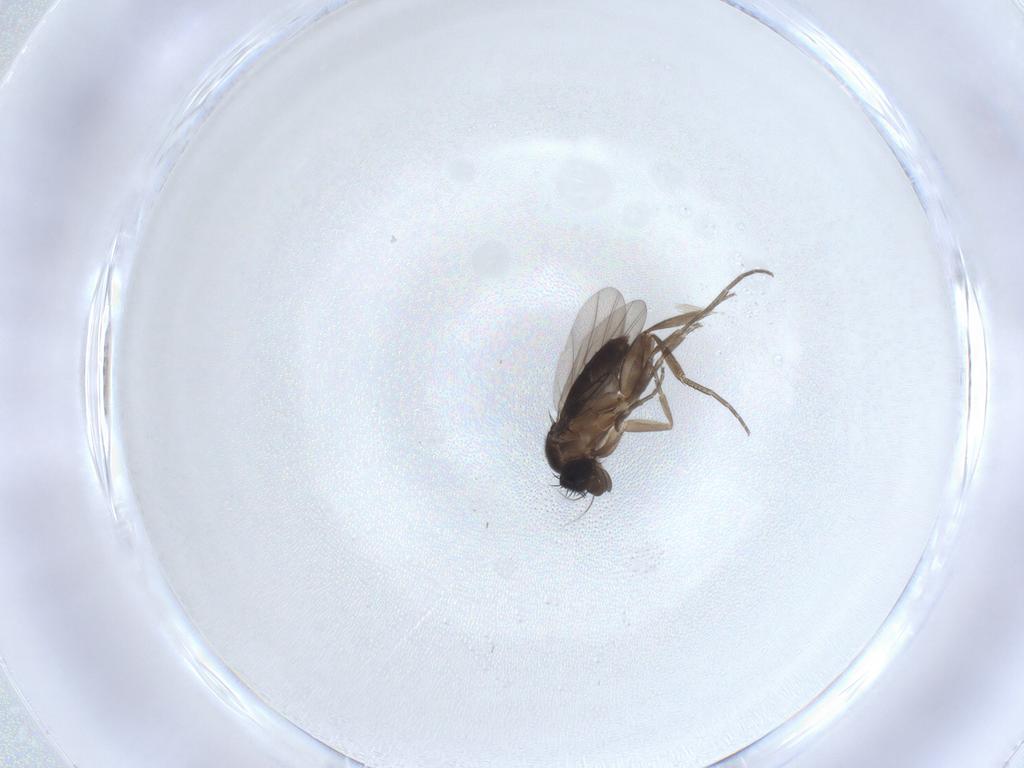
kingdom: Animalia
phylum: Arthropoda
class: Insecta
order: Diptera
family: Phoridae
